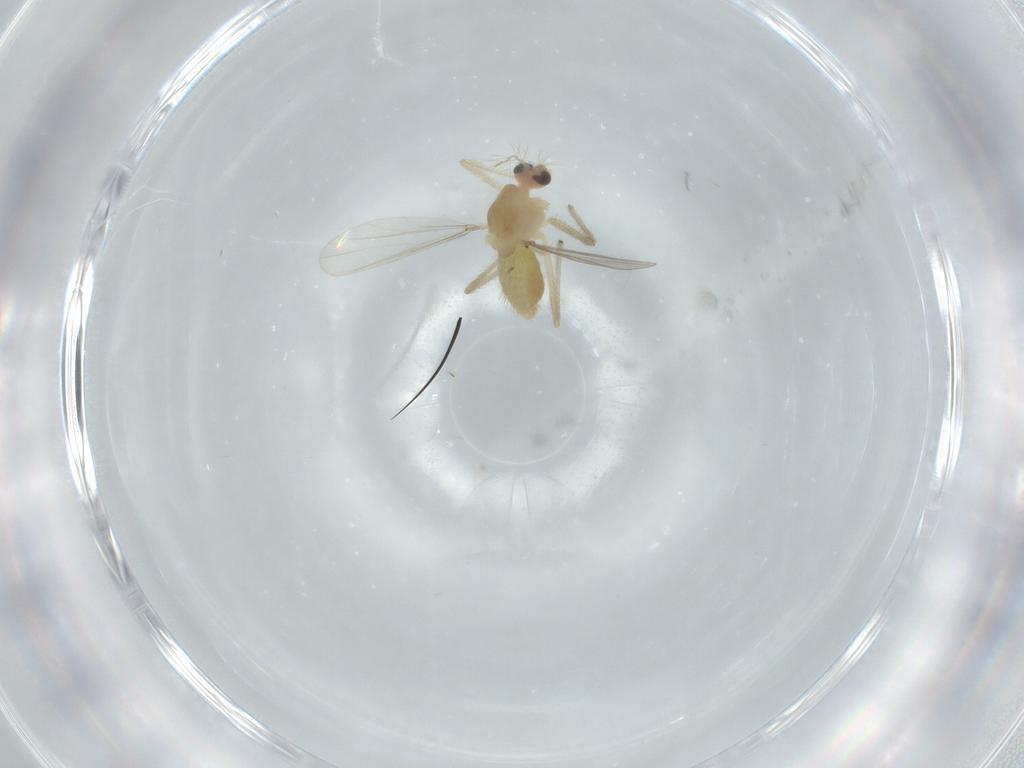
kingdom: Animalia
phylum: Arthropoda
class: Insecta
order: Diptera
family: Chironomidae
